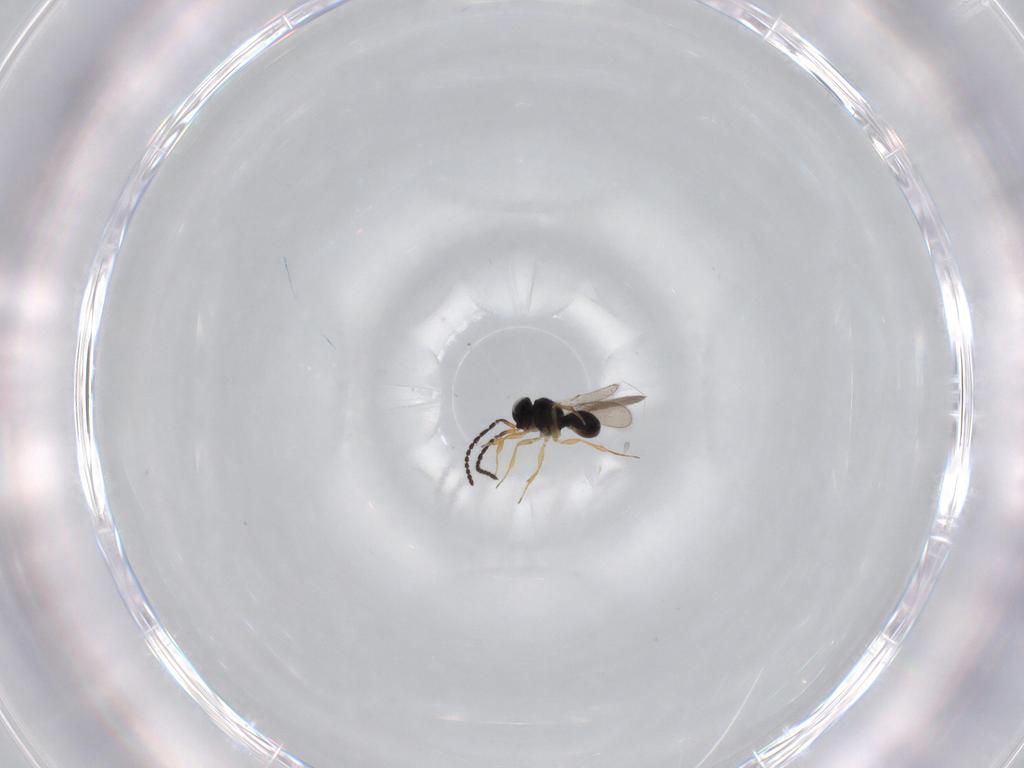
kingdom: Animalia
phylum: Arthropoda
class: Insecta
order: Hymenoptera
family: Scelionidae
